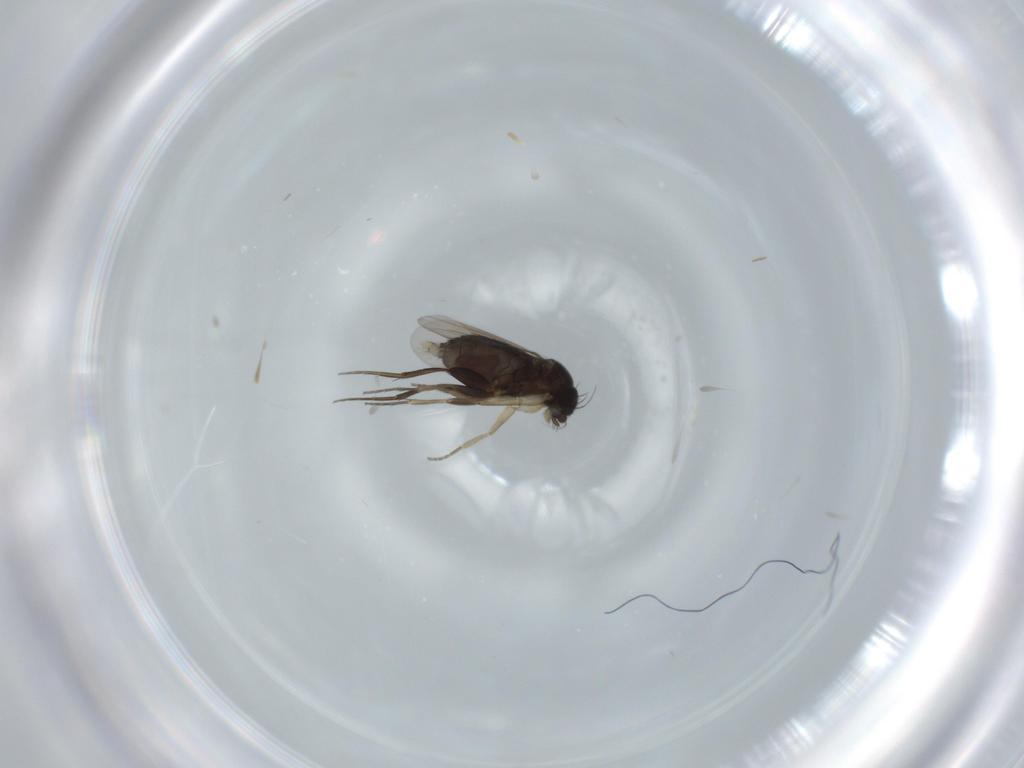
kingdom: Animalia
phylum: Arthropoda
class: Insecta
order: Diptera
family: Phoridae
